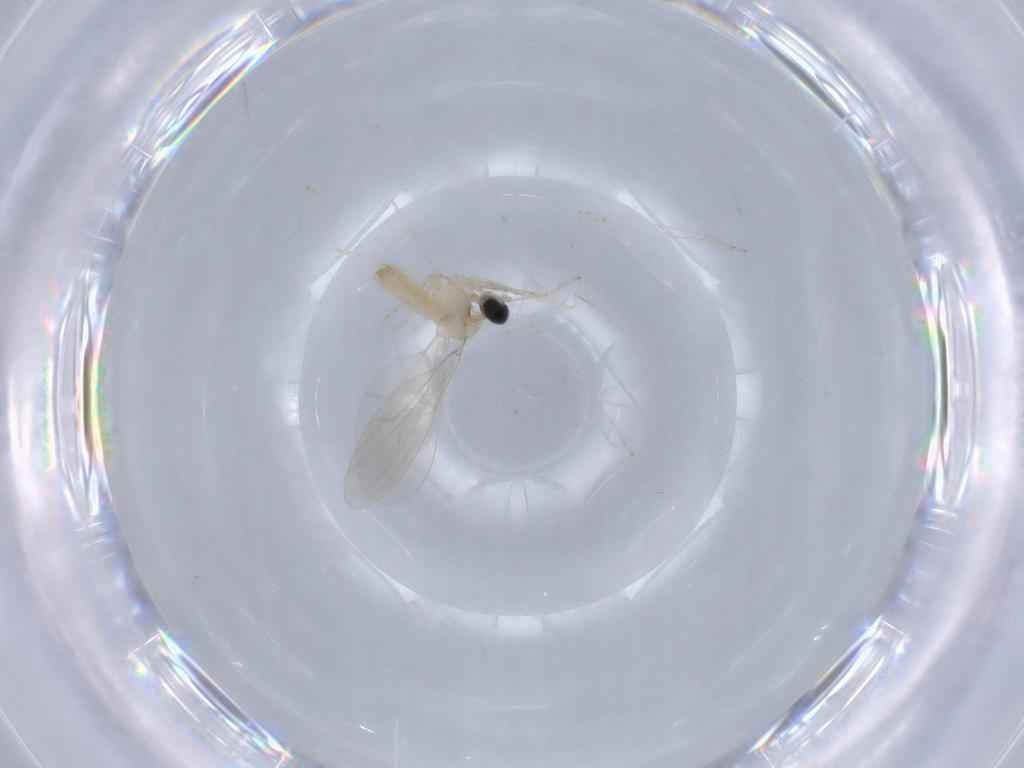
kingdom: Animalia
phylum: Arthropoda
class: Insecta
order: Diptera
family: Cecidomyiidae
